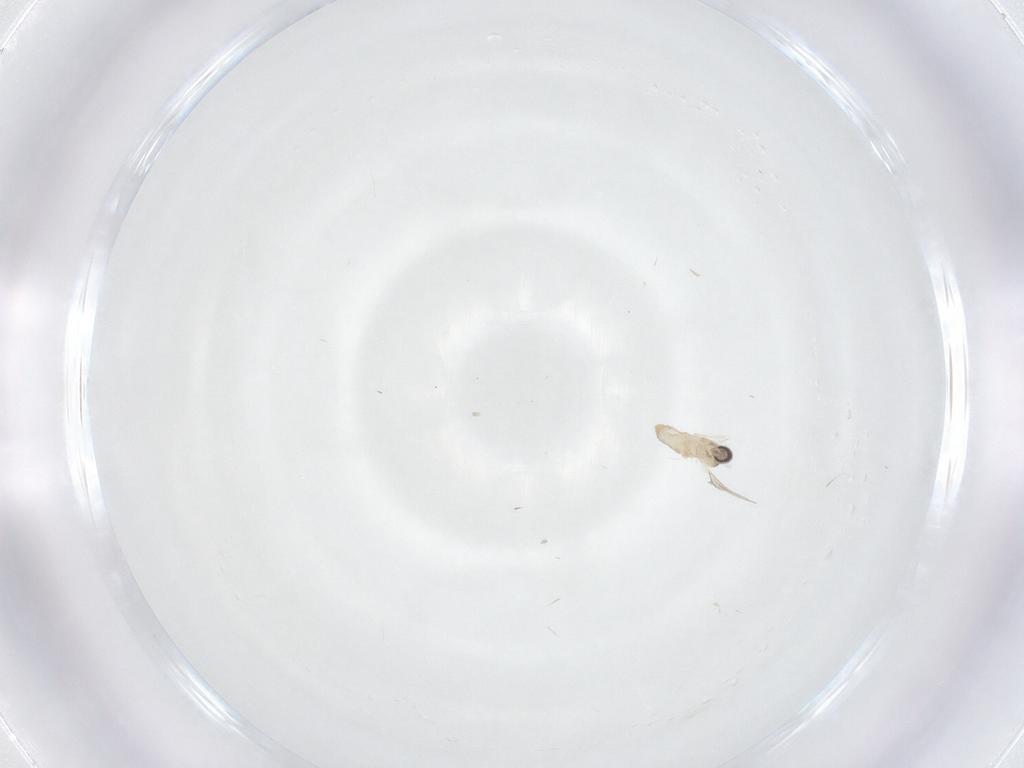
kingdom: Animalia
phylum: Arthropoda
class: Insecta
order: Diptera
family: Cecidomyiidae
